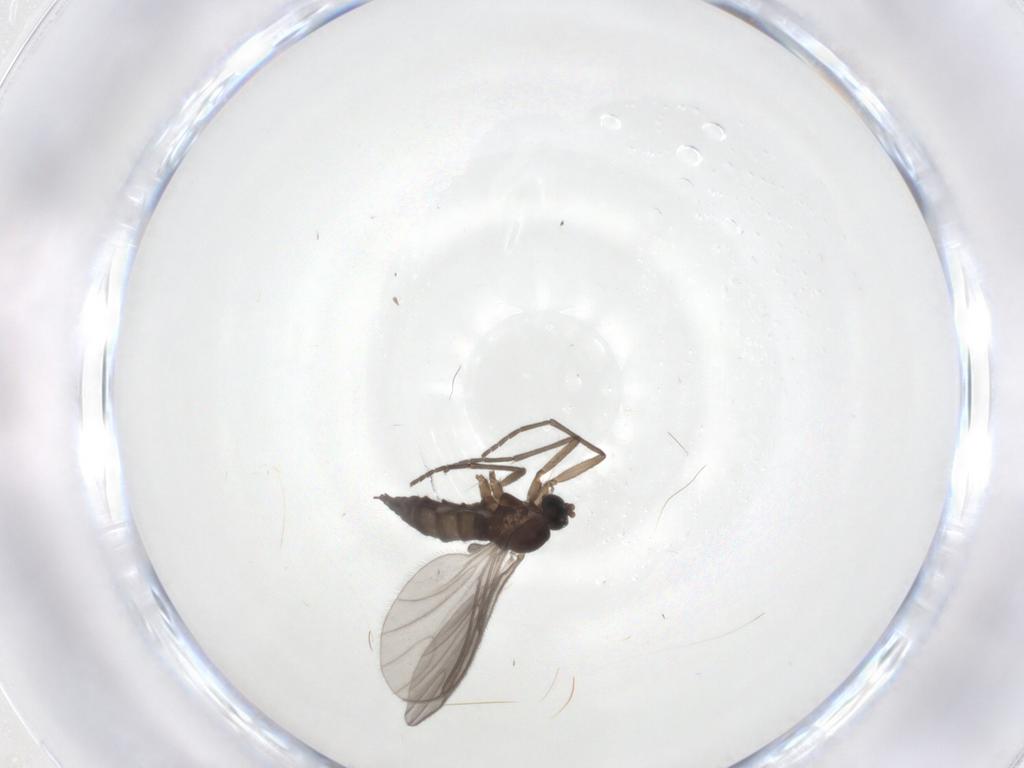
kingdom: Animalia
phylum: Arthropoda
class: Insecta
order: Diptera
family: Sciaridae
